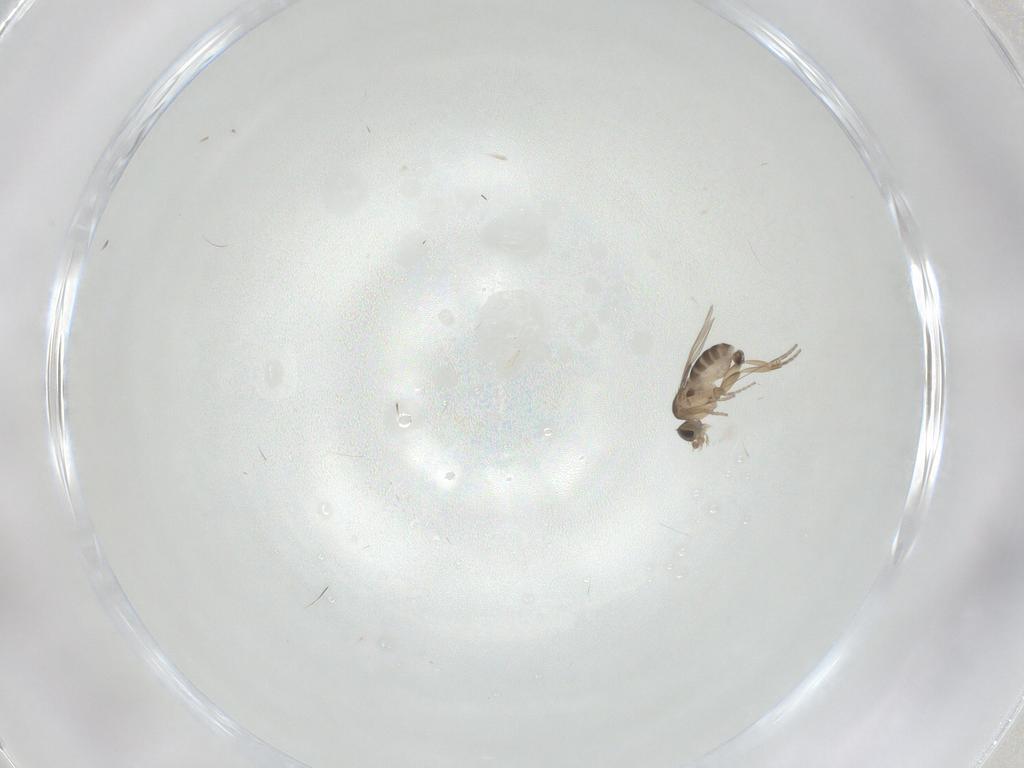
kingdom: Animalia
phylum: Arthropoda
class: Insecta
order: Diptera
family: Phoridae
